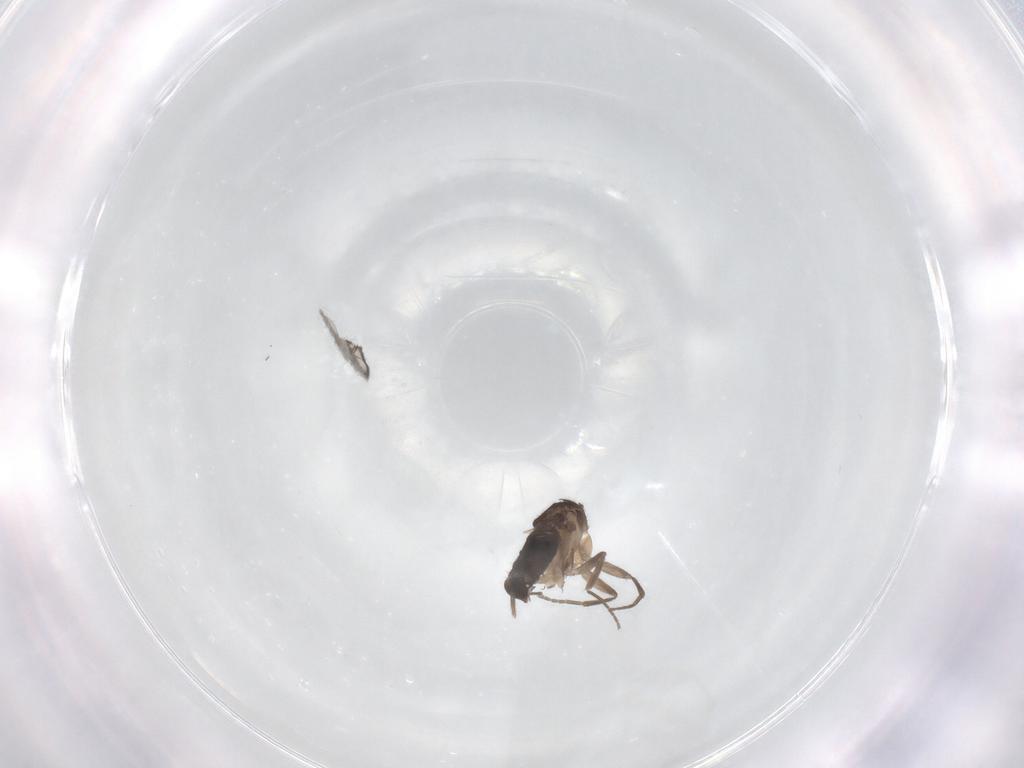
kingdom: Animalia
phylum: Arthropoda
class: Insecta
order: Diptera
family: Phoridae
